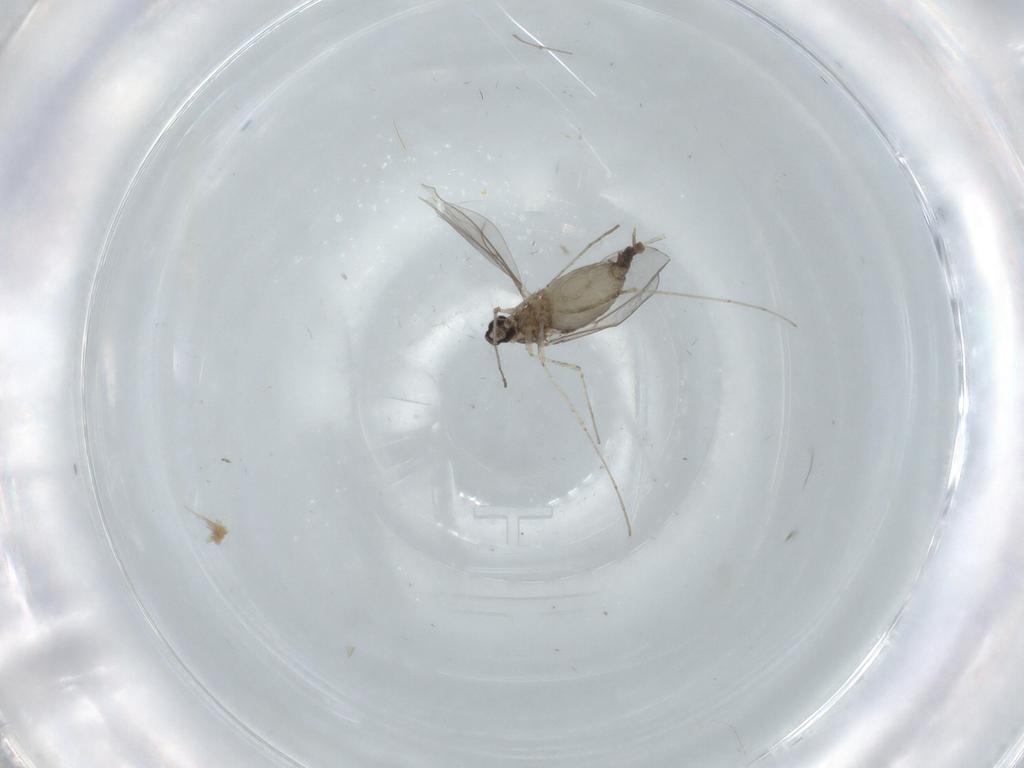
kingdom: Animalia
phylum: Arthropoda
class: Insecta
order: Diptera
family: Cecidomyiidae
